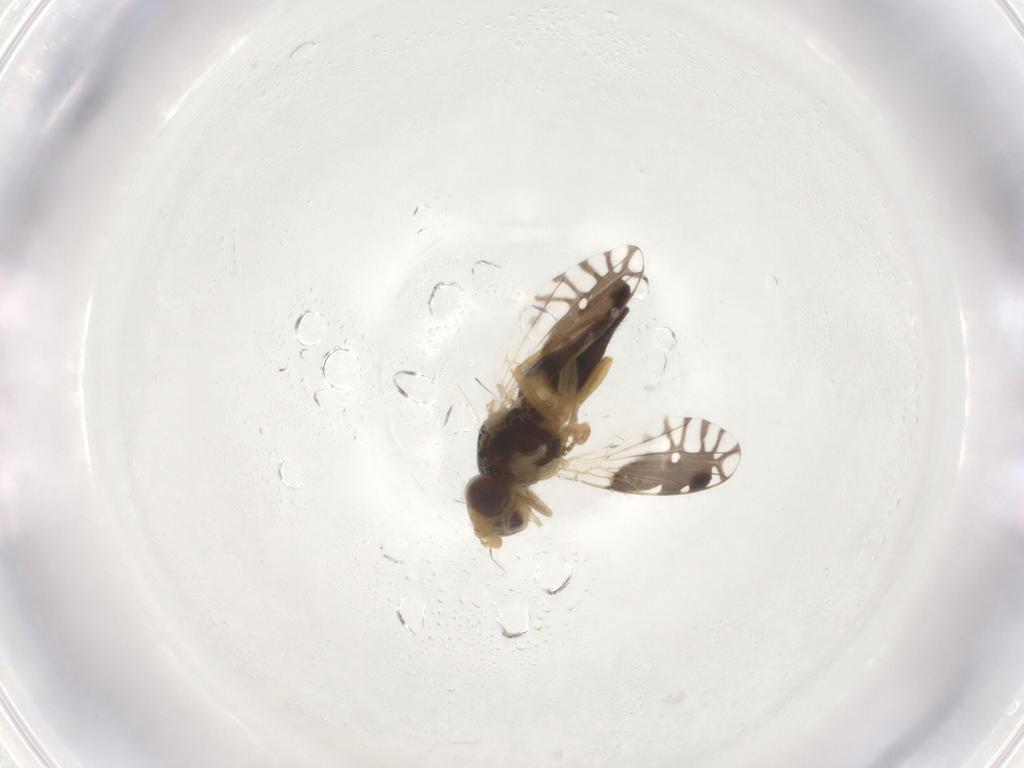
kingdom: Animalia
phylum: Arthropoda
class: Insecta
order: Diptera
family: Tephritidae
